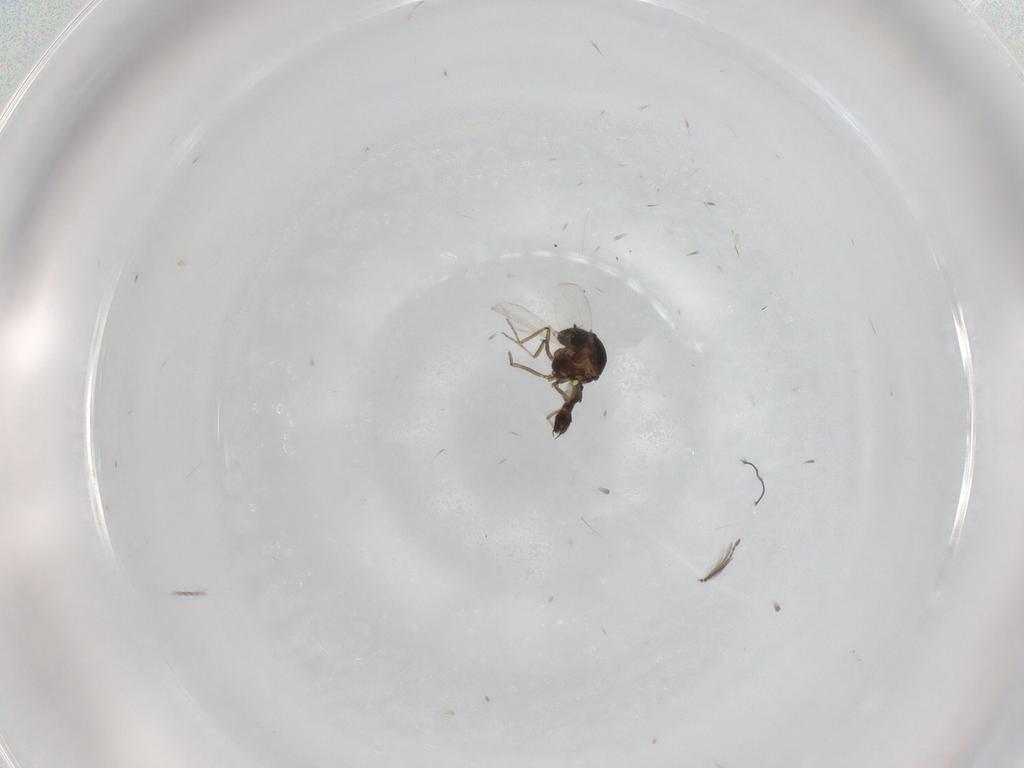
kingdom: Animalia
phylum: Arthropoda
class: Insecta
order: Diptera
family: Ceratopogonidae
